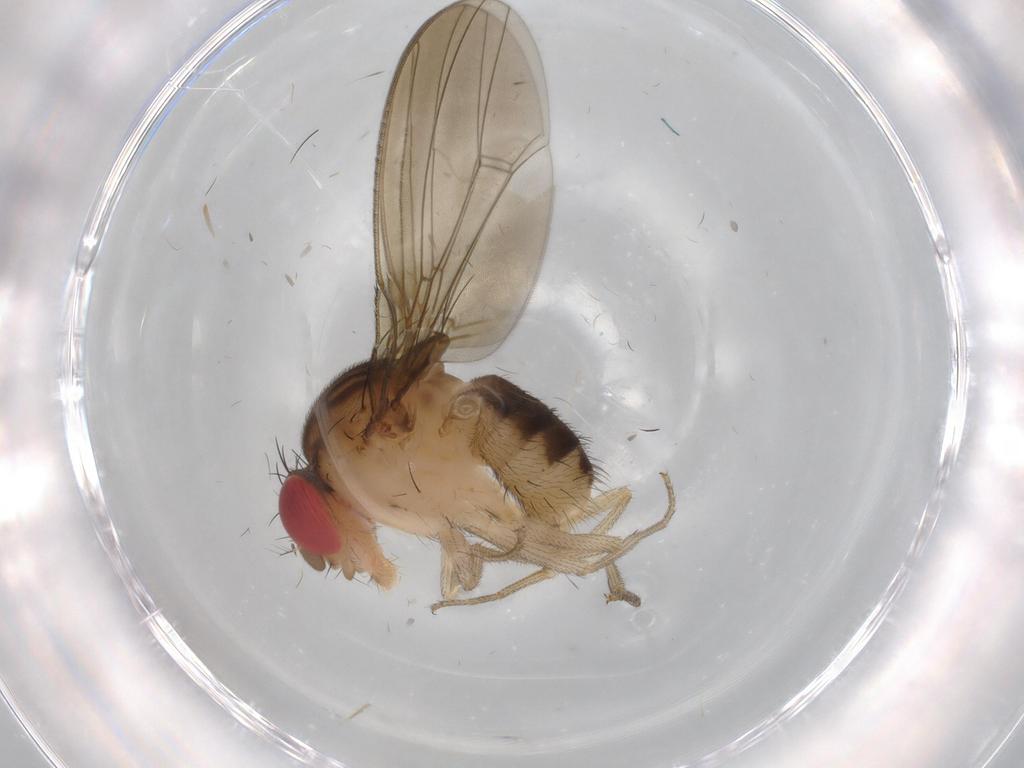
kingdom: Animalia
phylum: Arthropoda
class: Insecta
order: Diptera
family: Drosophilidae
